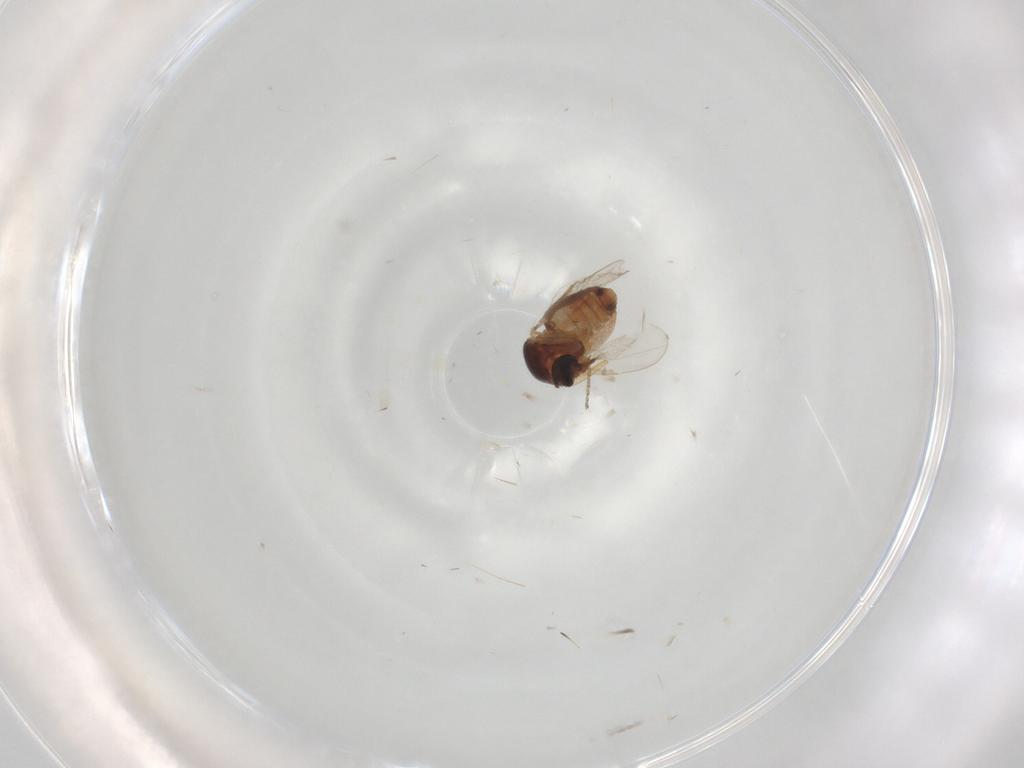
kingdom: Animalia
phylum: Arthropoda
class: Insecta
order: Diptera
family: Ceratopogonidae
